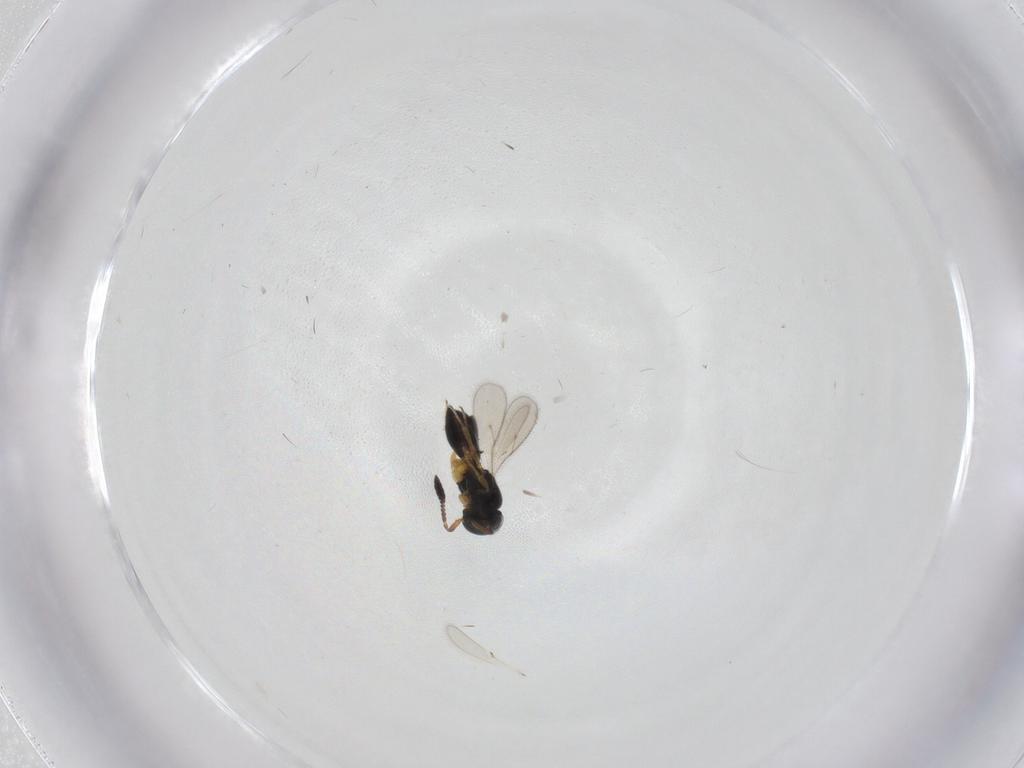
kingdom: Animalia
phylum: Arthropoda
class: Insecta
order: Hymenoptera
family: Scelionidae
